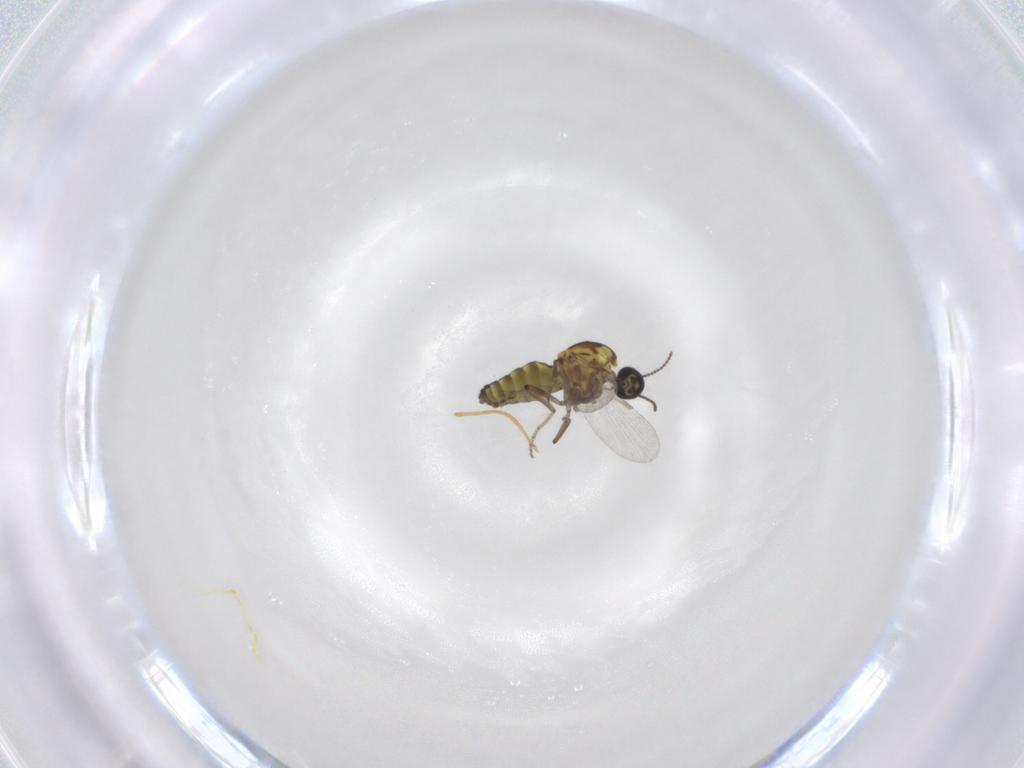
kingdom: Animalia
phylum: Arthropoda
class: Insecta
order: Diptera
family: Ceratopogonidae
